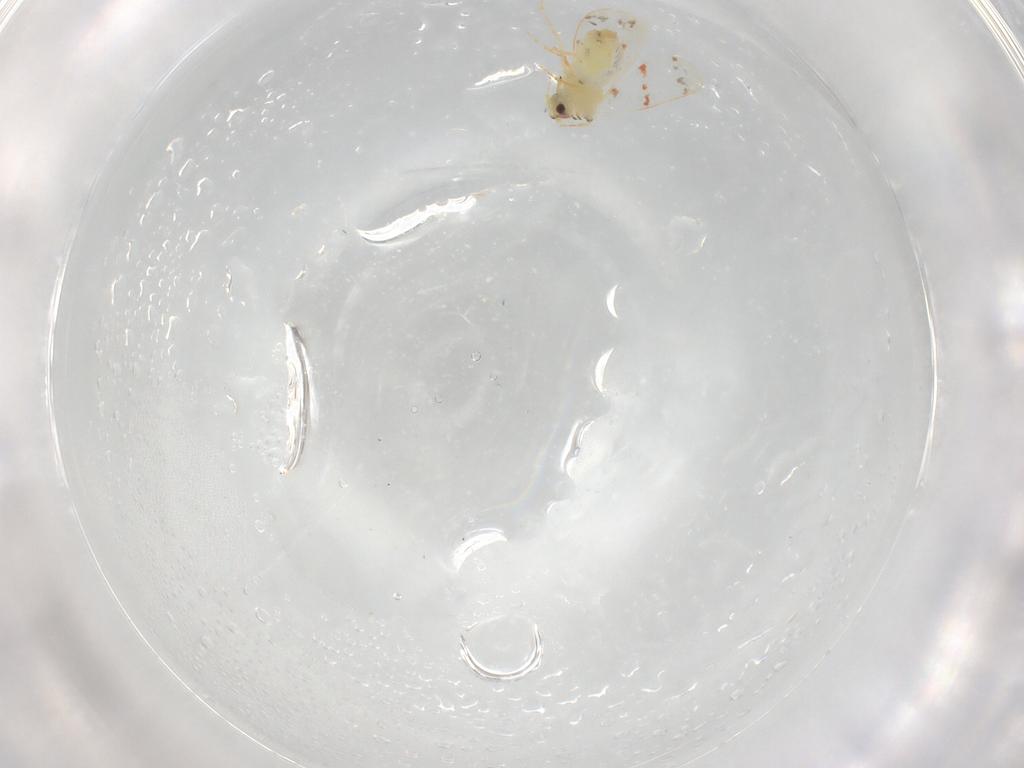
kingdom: Animalia
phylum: Arthropoda
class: Insecta
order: Hemiptera
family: Aleyrodidae
